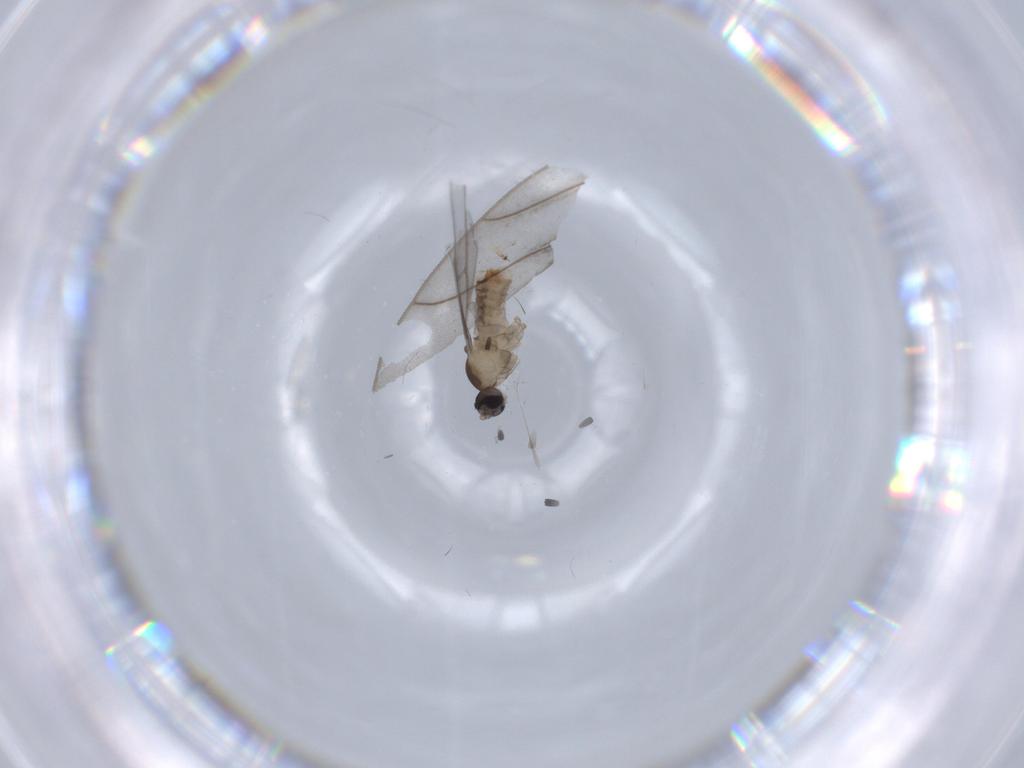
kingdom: Animalia
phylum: Arthropoda
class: Insecta
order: Diptera
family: Cecidomyiidae
